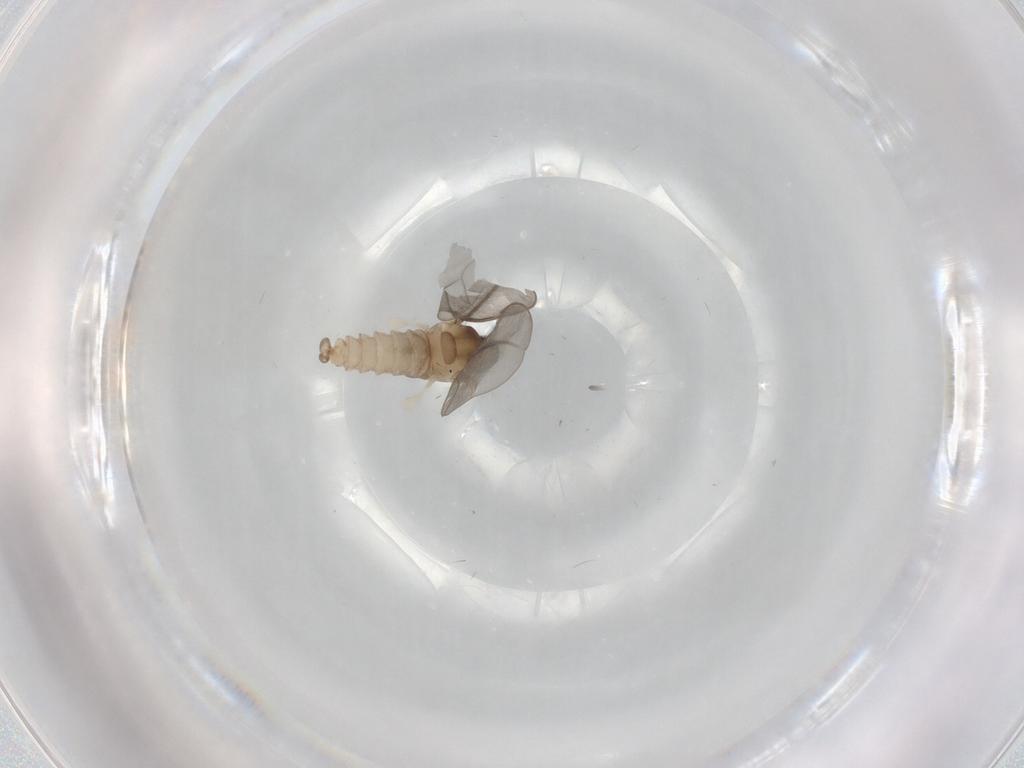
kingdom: Animalia
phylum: Arthropoda
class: Insecta
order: Diptera
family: Cecidomyiidae
